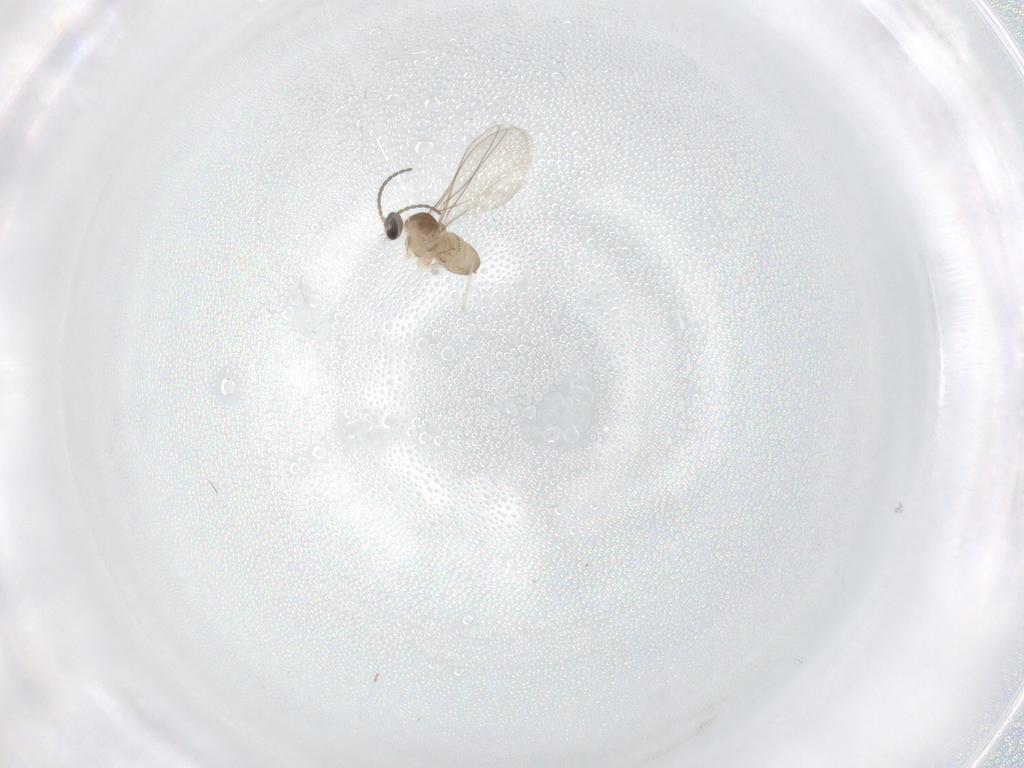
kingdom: Animalia
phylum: Arthropoda
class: Insecta
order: Diptera
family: Cecidomyiidae
